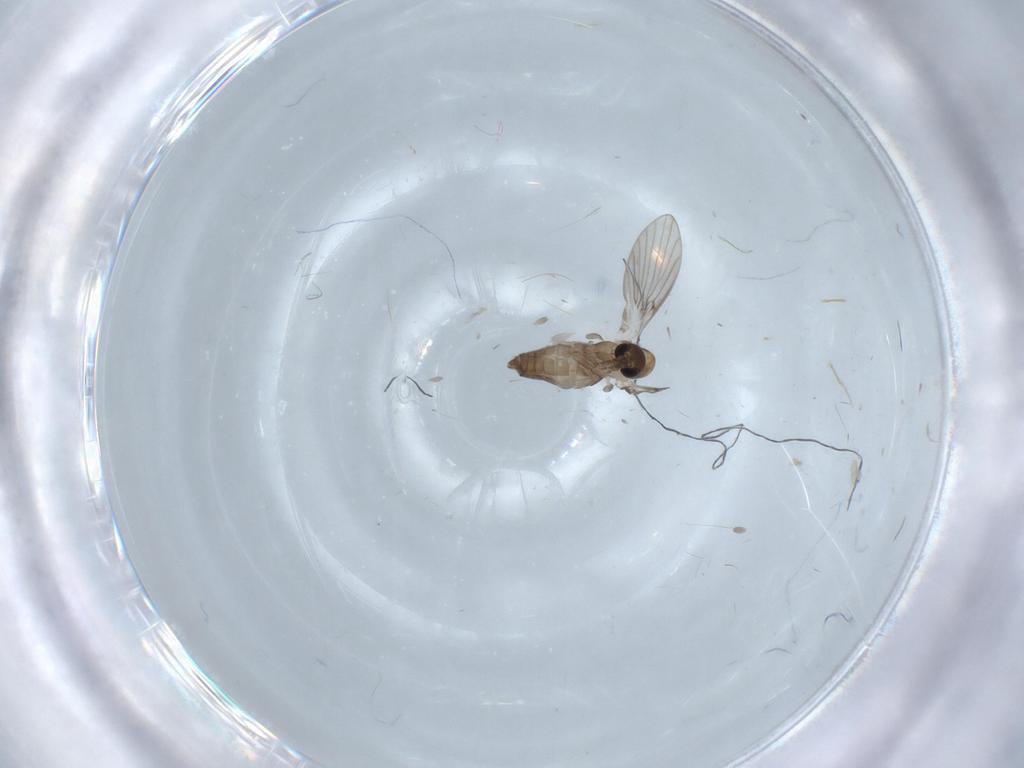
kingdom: Animalia
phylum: Arthropoda
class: Insecta
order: Diptera
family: Psychodidae
